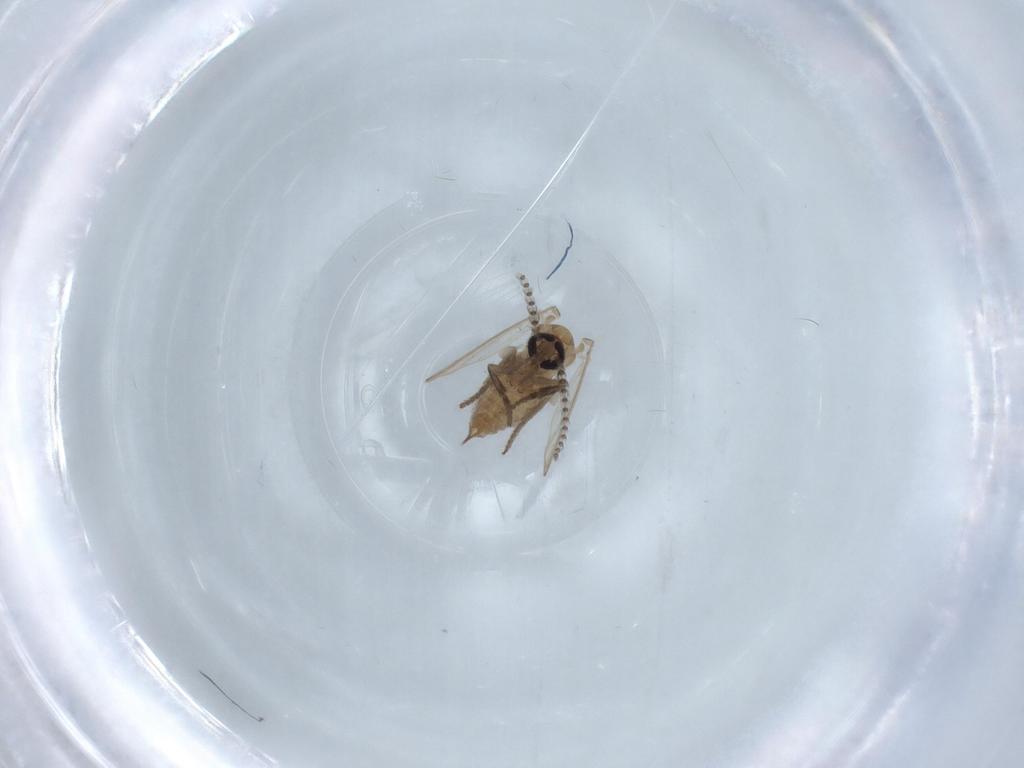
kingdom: Animalia
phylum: Arthropoda
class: Insecta
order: Diptera
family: Psychodidae
